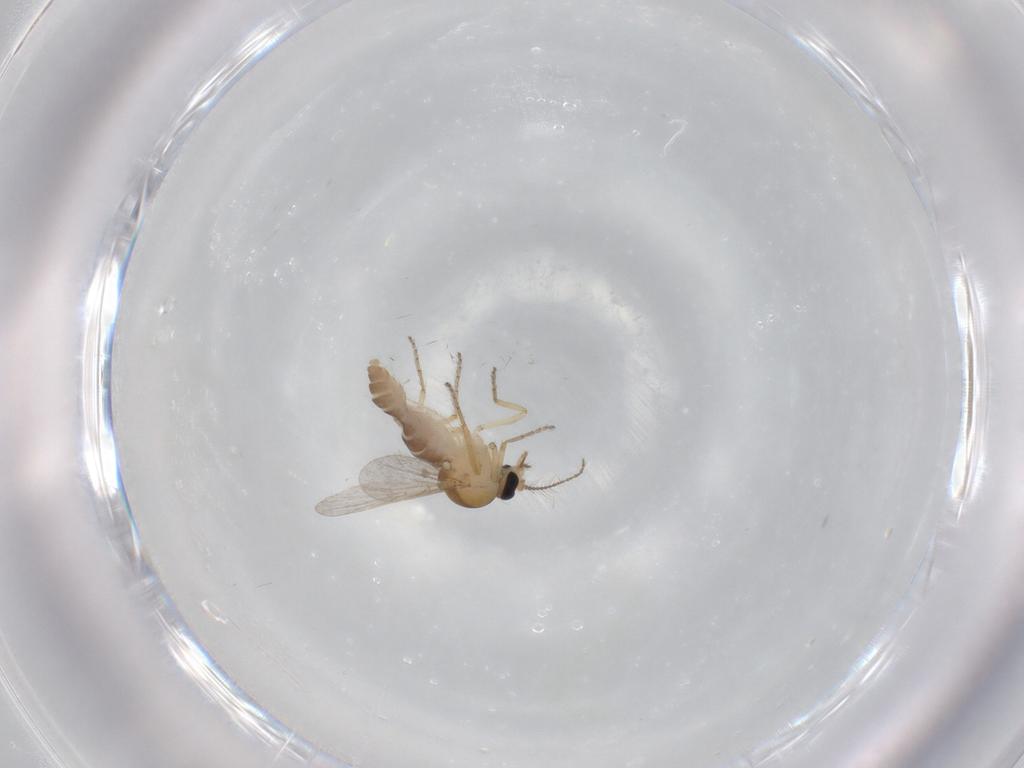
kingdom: Animalia
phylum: Arthropoda
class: Insecta
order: Diptera
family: Ceratopogonidae
